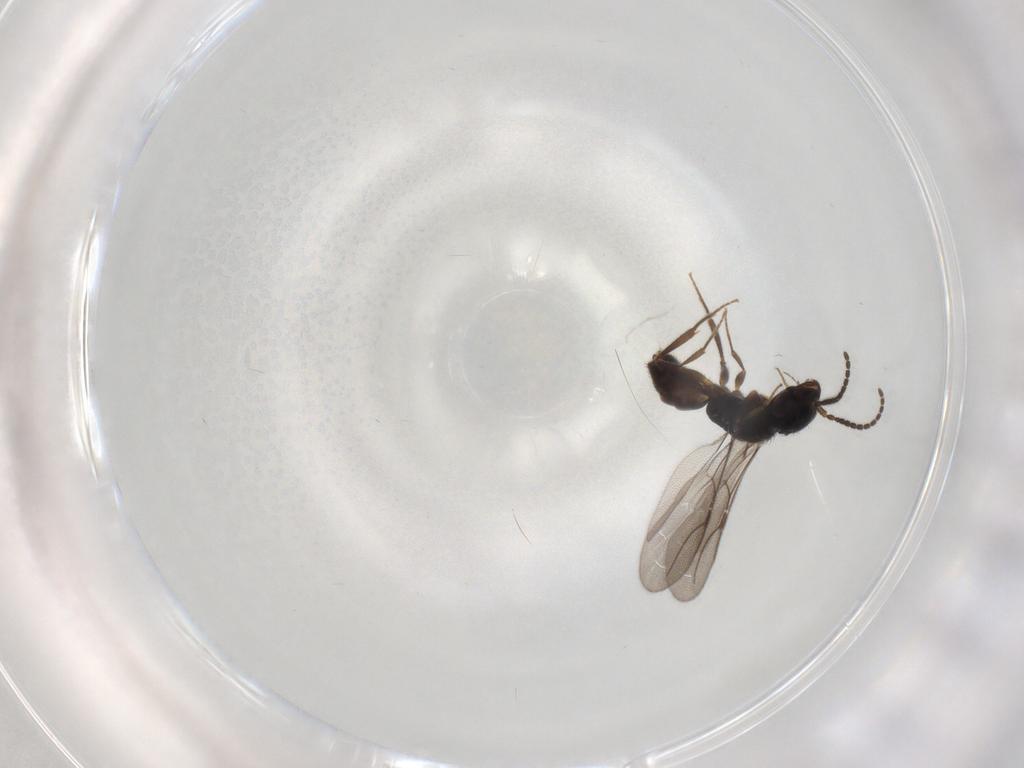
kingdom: Animalia
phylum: Arthropoda
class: Insecta
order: Hymenoptera
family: Bethylidae
